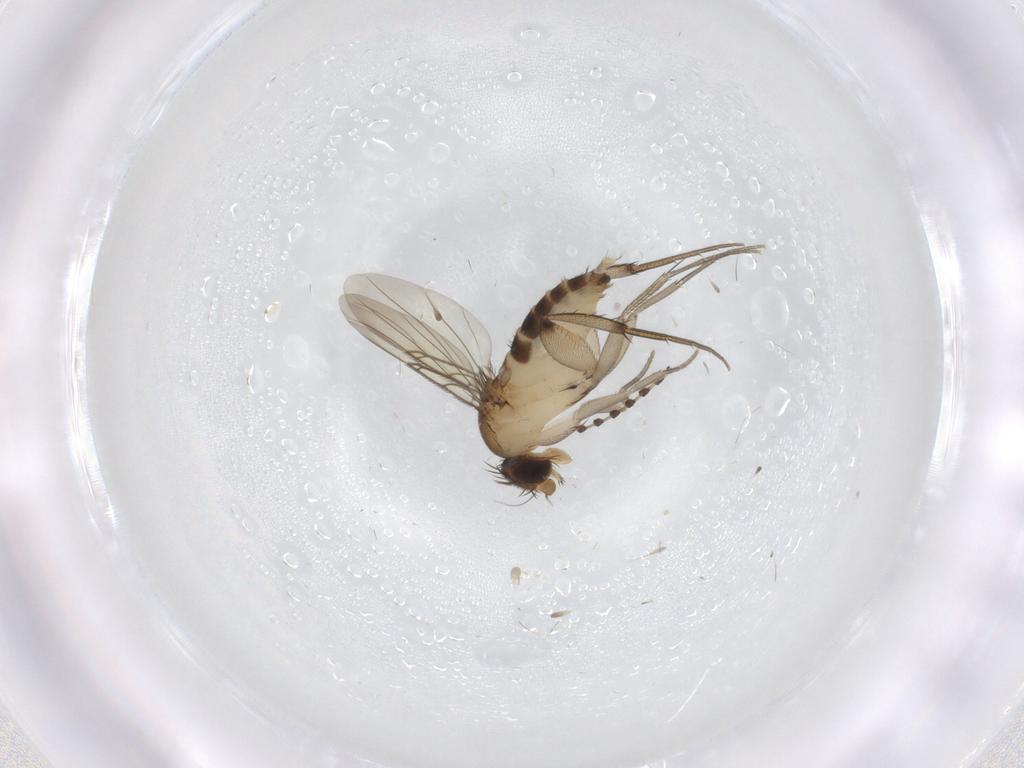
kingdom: Animalia
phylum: Arthropoda
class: Insecta
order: Diptera
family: Phoridae
